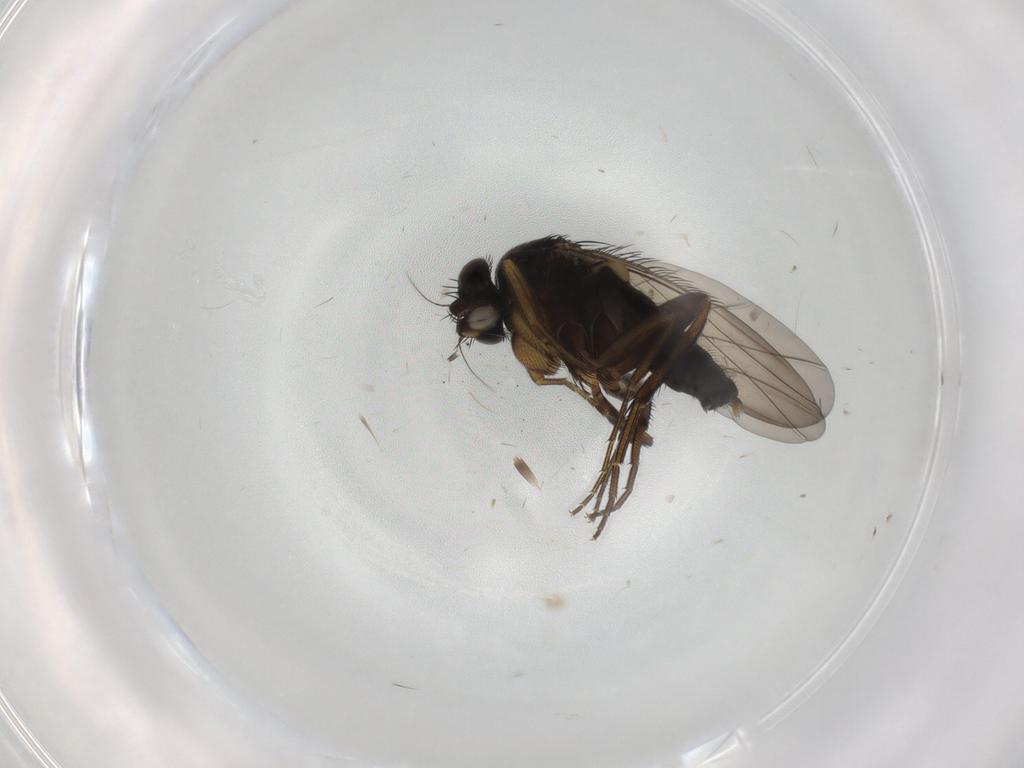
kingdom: Animalia
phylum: Arthropoda
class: Insecta
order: Diptera
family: Phoridae
